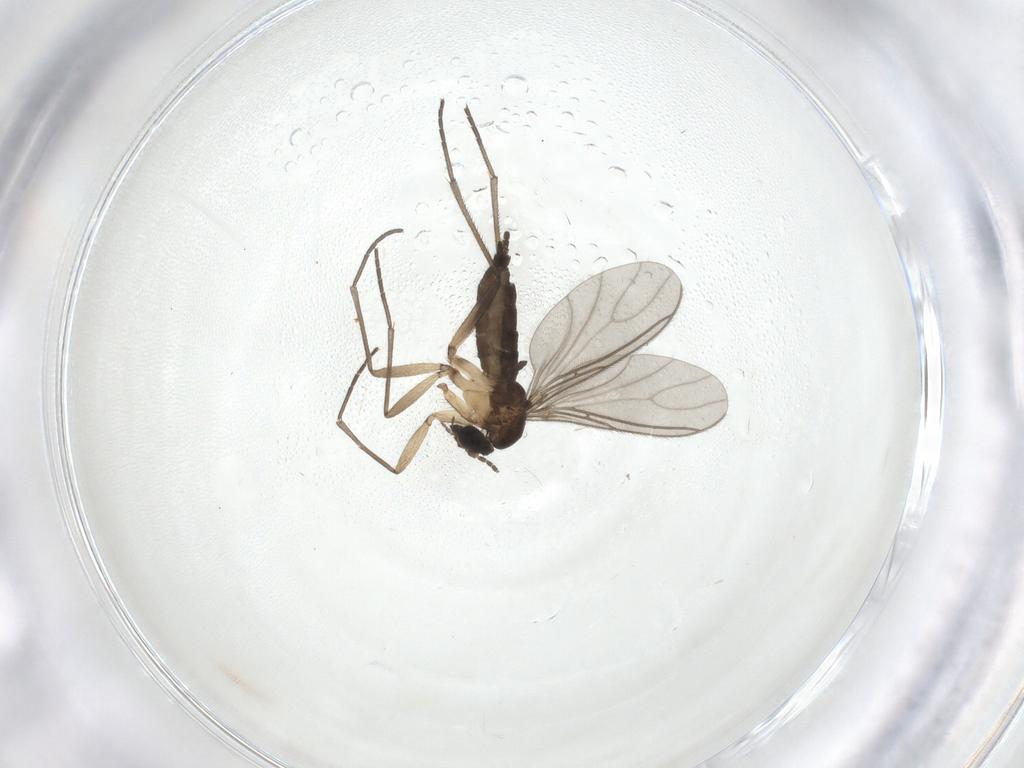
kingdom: Animalia
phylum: Arthropoda
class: Insecta
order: Diptera
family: Sciaridae
